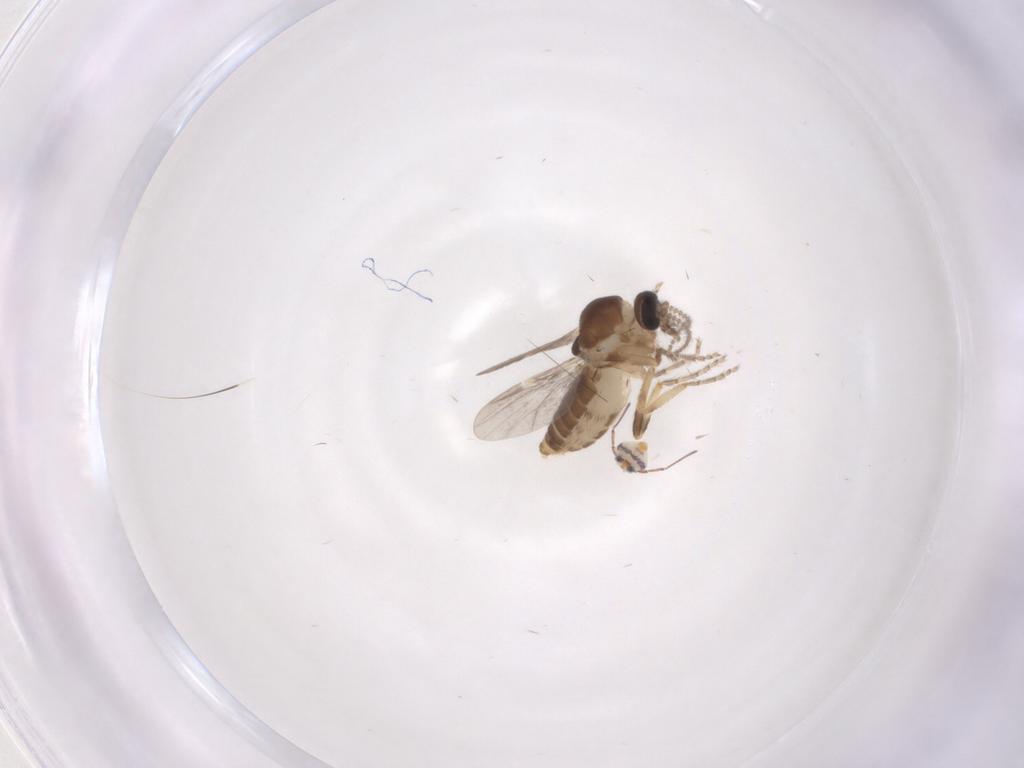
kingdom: Animalia
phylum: Arthropoda
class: Insecta
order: Diptera
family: Ceratopogonidae
